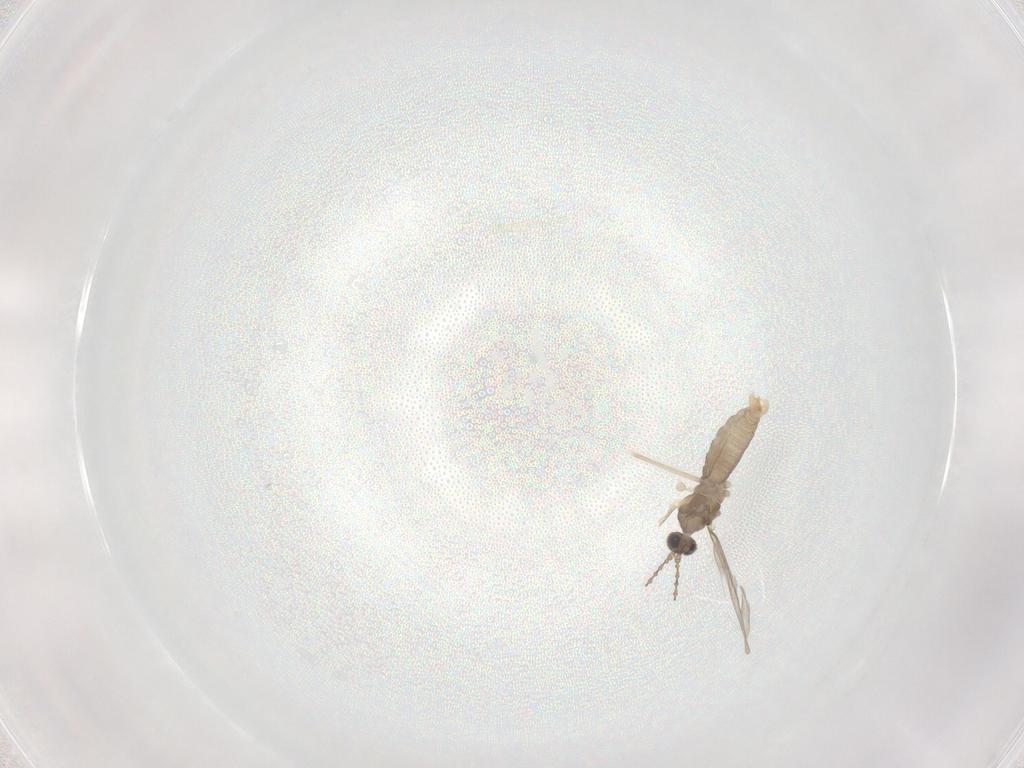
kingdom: Animalia
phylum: Arthropoda
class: Insecta
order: Diptera
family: Cecidomyiidae
